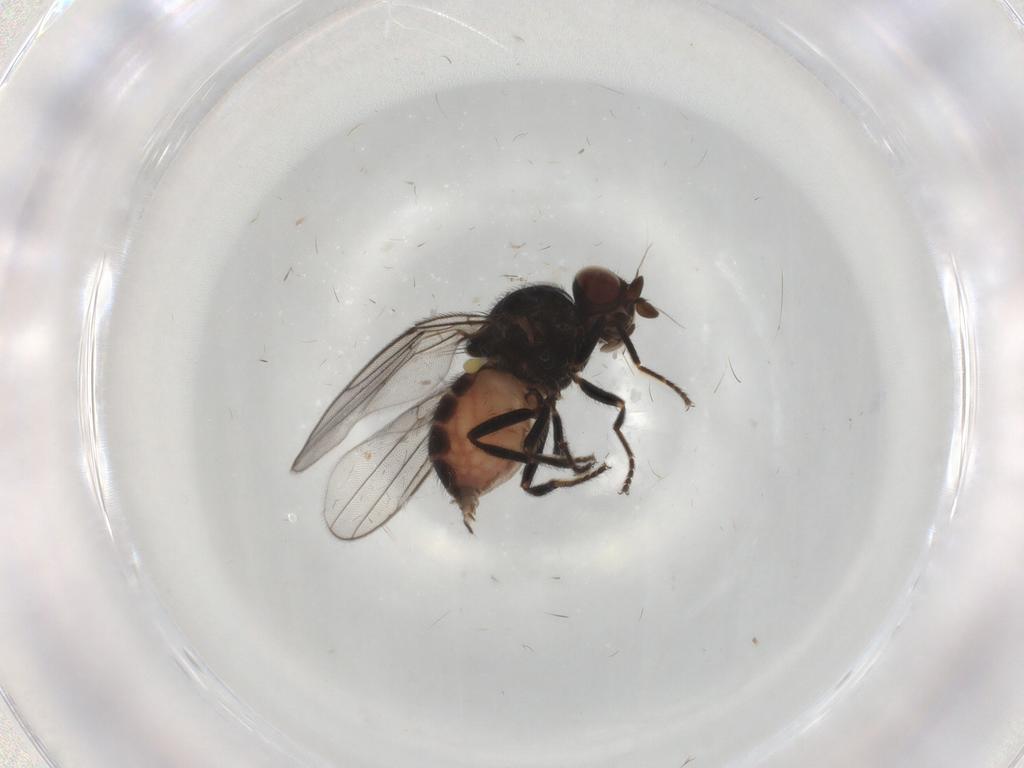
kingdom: Animalia
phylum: Arthropoda
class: Insecta
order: Diptera
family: Chloropidae
